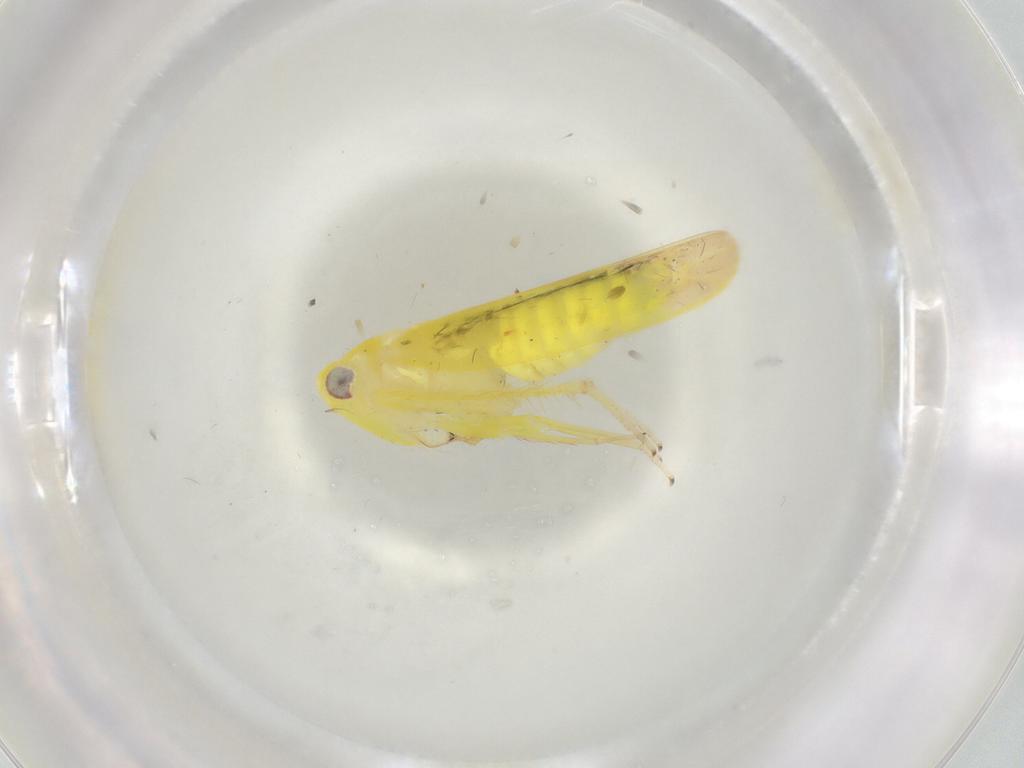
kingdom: Animalia
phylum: Arthropoda
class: Insecta
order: Hemiptera
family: Cicadellidae
